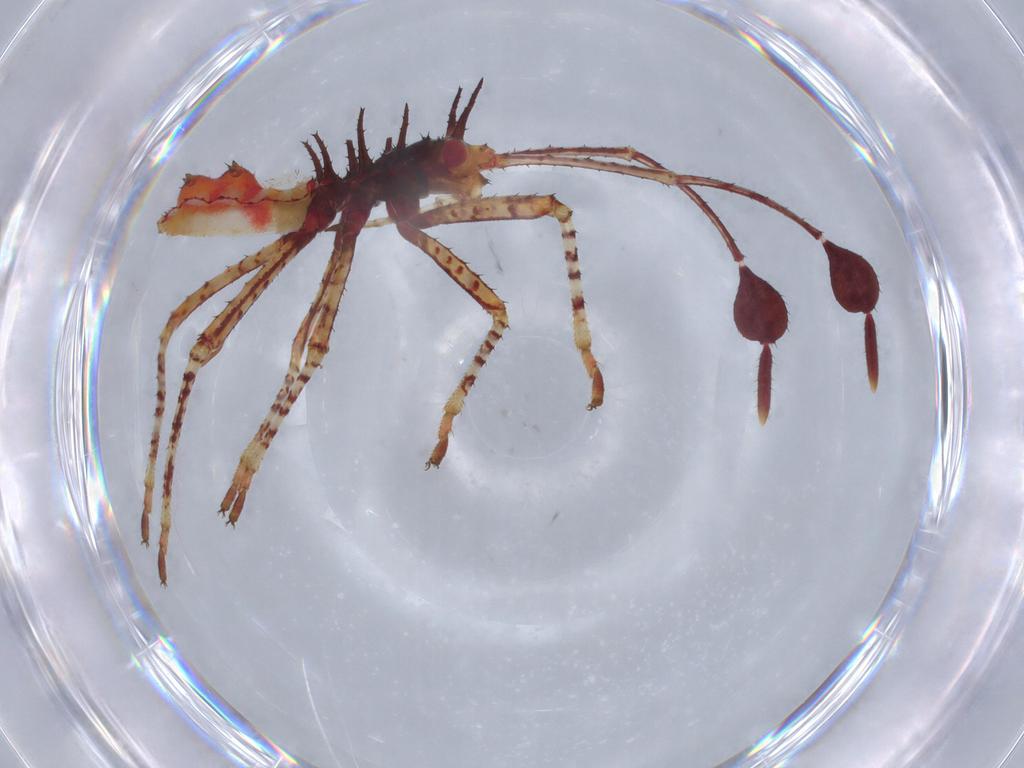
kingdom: Animalia
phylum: Arthropoda
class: Insecta
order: Hemiptera
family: Coreidae
